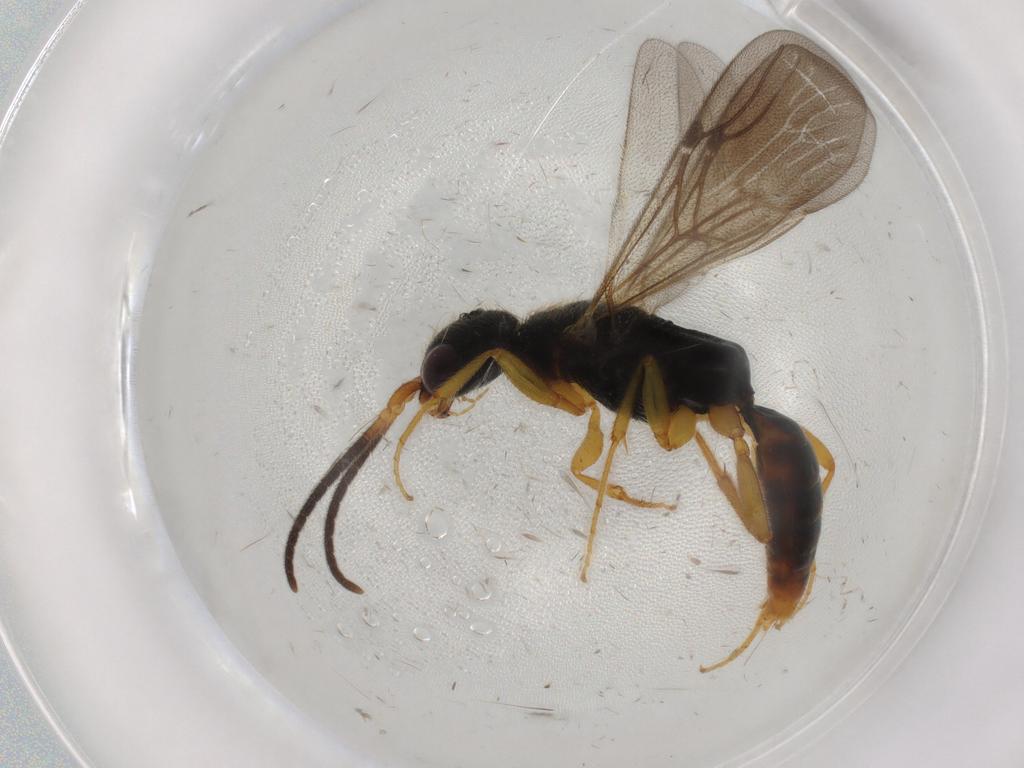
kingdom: Animalia
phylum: Arthropoda
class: Insecta
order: Hymenoptera
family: Bethylidae
